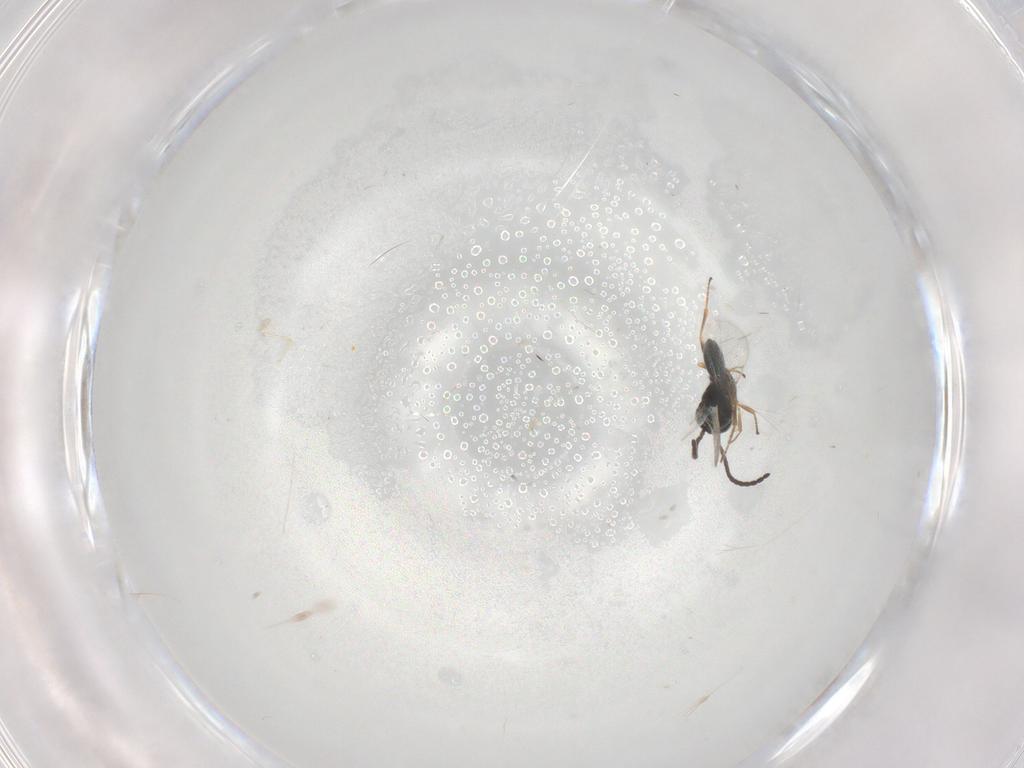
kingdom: Animalia
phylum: Arthropoda
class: Insecta
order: Hymenoptera
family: Figitidae
